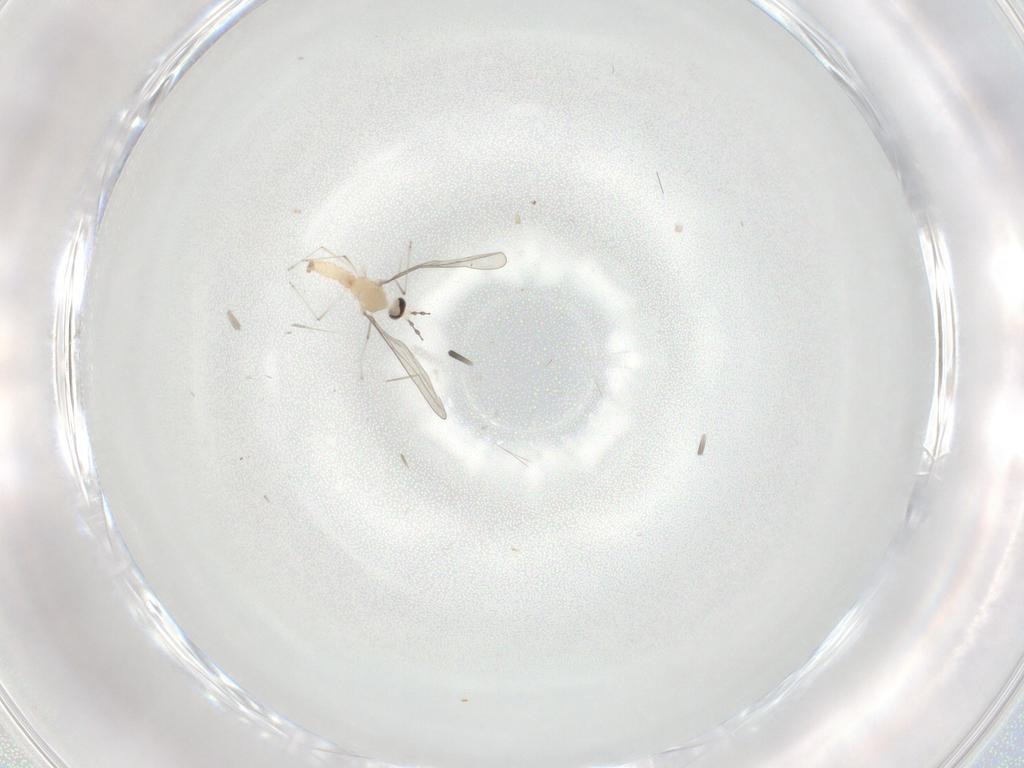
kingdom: Animalia
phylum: Arthropoda
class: Insecta
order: Diptera
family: Cecidomyiidae
